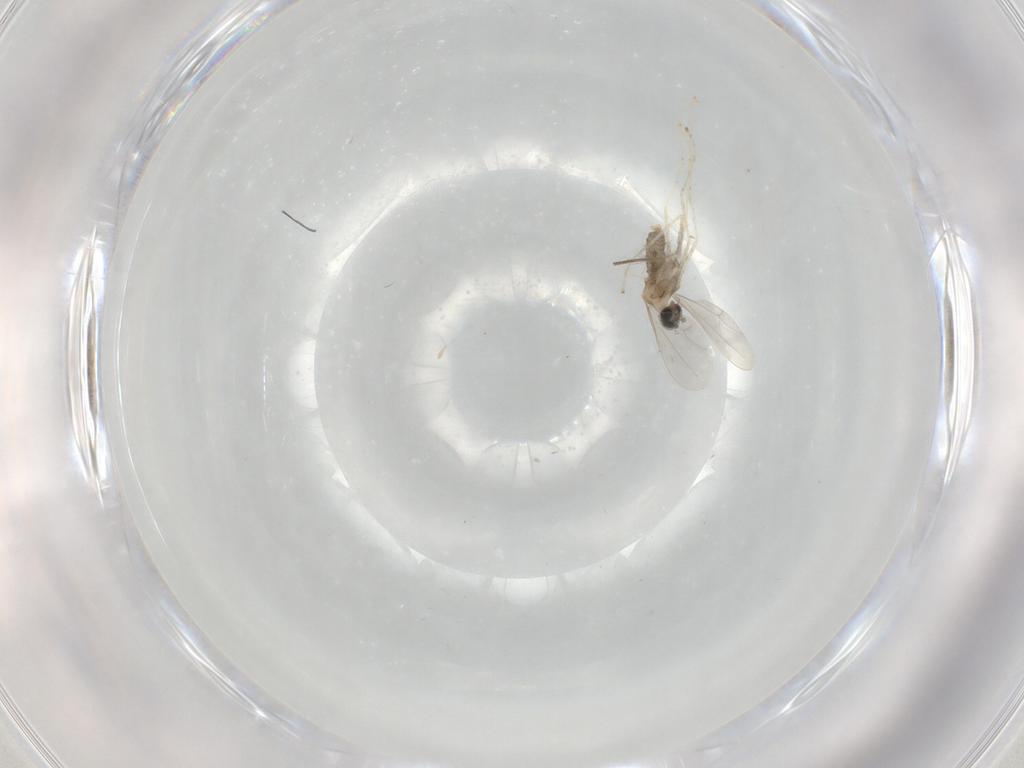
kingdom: Animalia
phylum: Arthropoda
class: Insecta
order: Diptera
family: Cecidomyiidae
